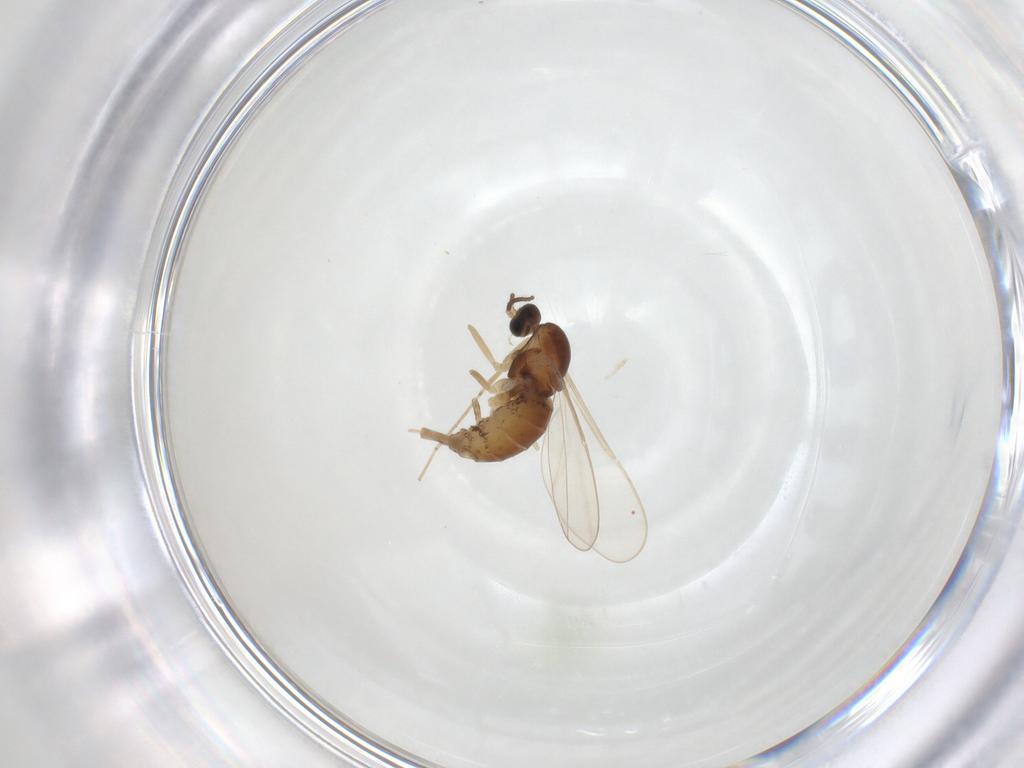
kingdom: Animalia
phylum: Arthropoda
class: Insecta
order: Diptera
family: Cecidomyiidae
